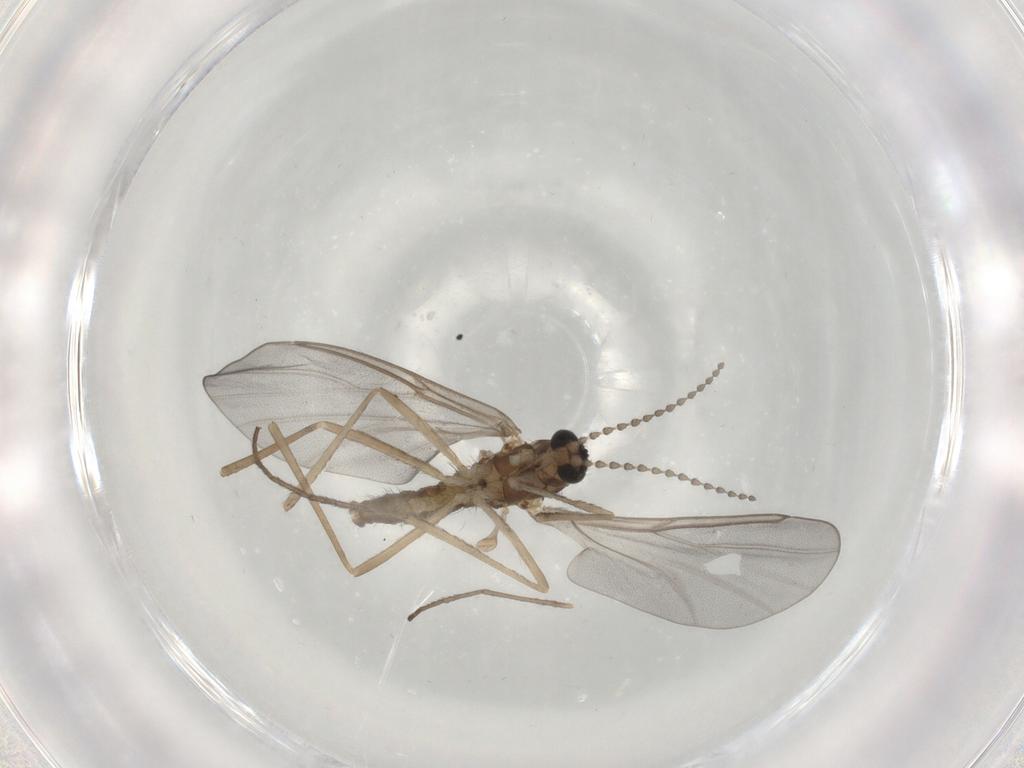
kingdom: Animalia
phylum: Arthropoda
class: Insecta
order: Diptera
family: Cecidomyiidae
